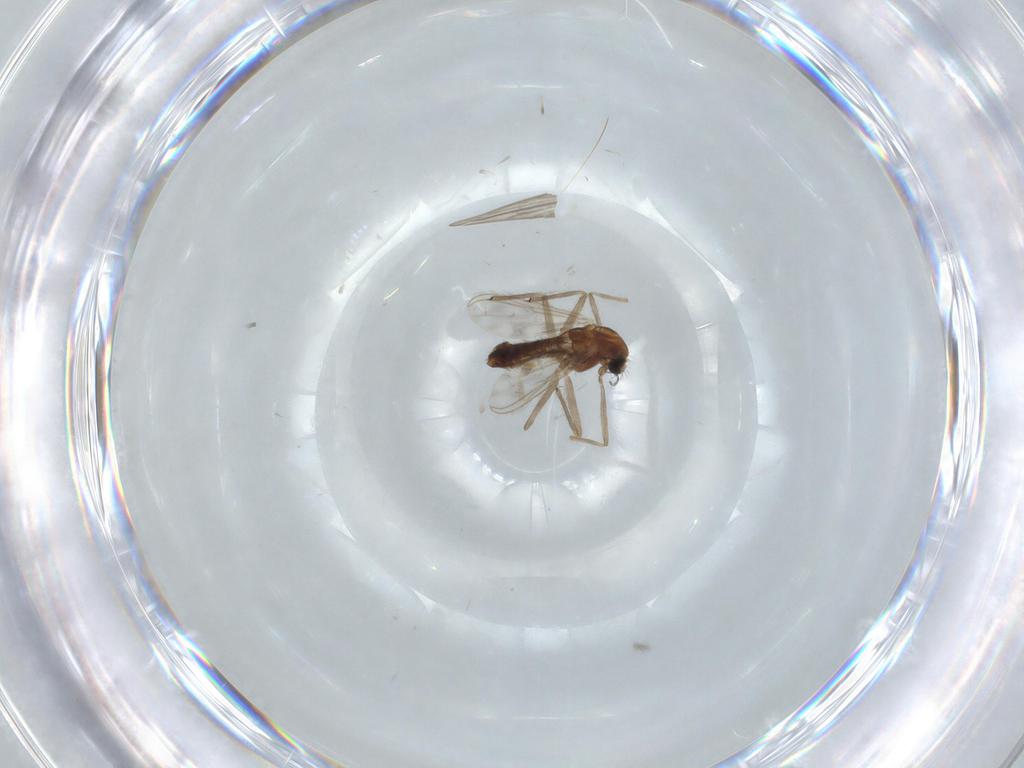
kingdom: Animalia
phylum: Arthropoda
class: Insecta
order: Diptera
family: Chironomidae
